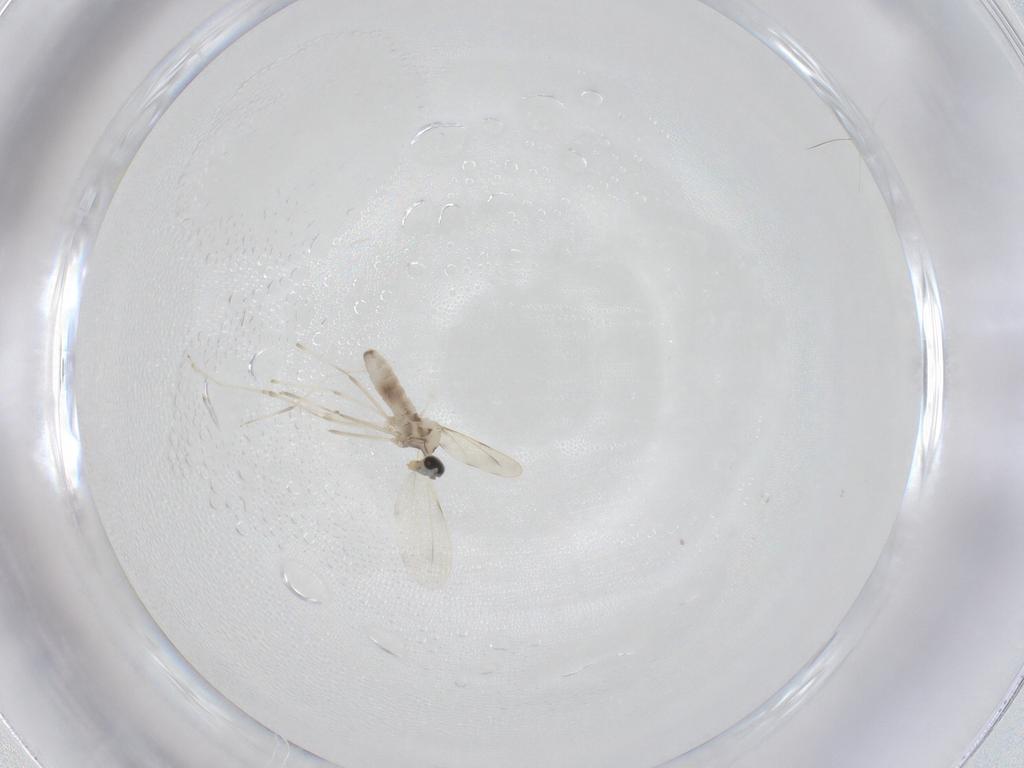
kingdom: Animalia
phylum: Arthropoda
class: Insecta
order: Diptera
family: Cecidomyiidae
